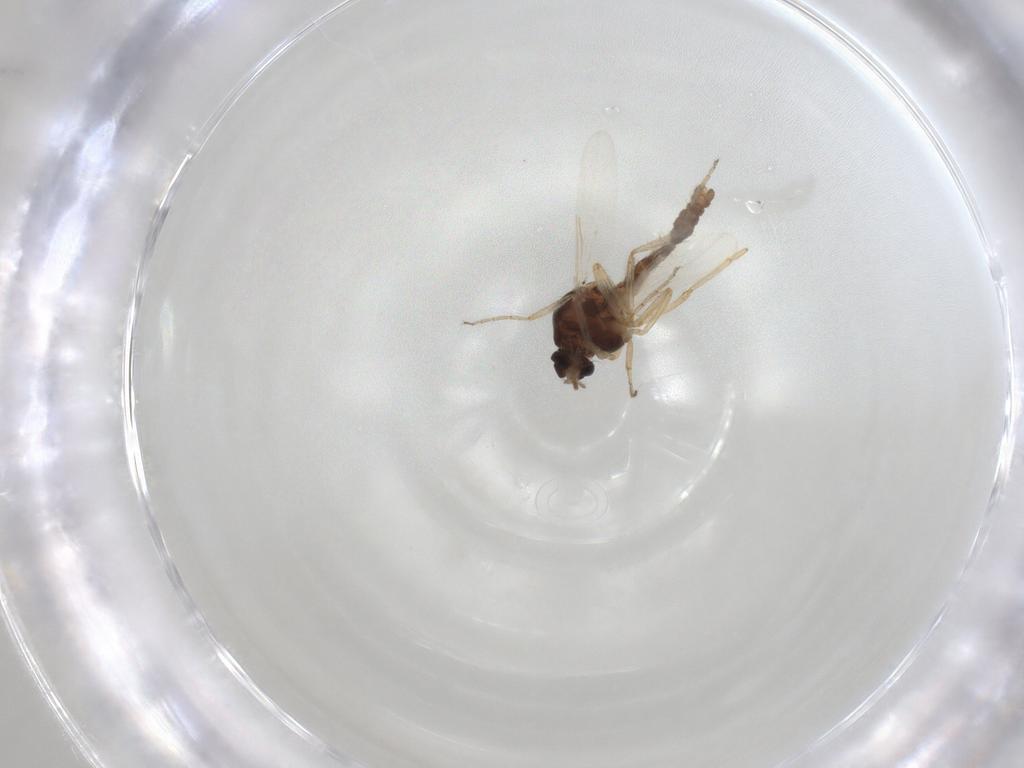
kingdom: Animalia
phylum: Arthropoda
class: Insecta
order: Diptera
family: Ceratopogonidae
